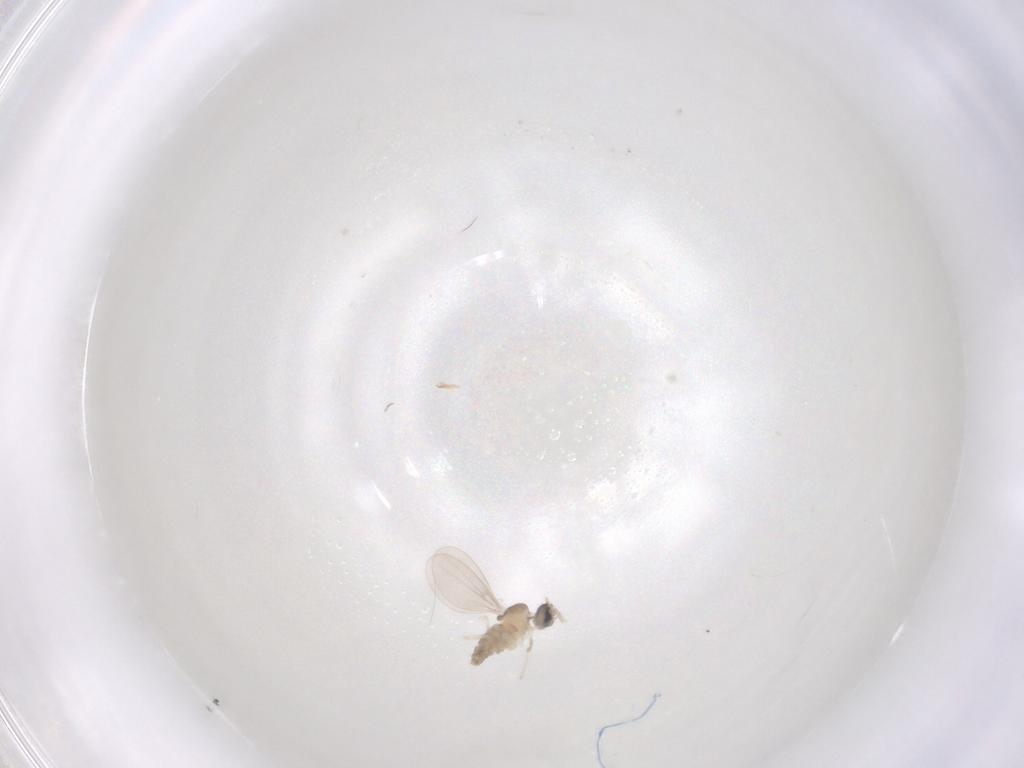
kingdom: Animalia
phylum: Arthropoda
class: Insecta
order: Diptera
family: Cecidomyiidae
